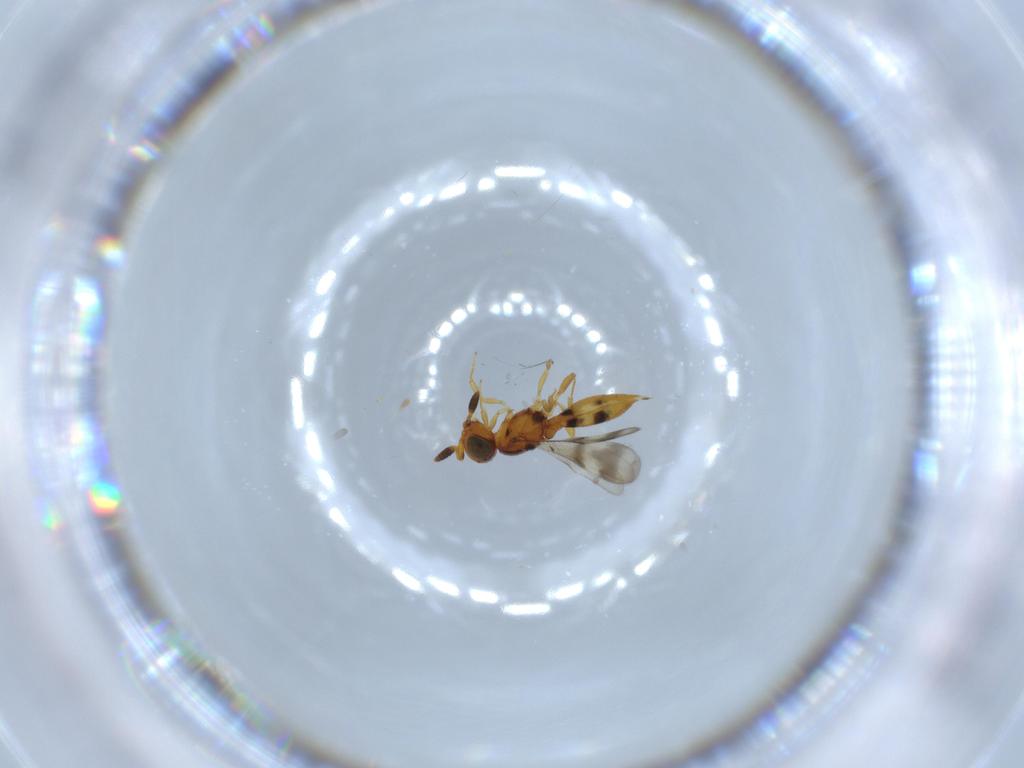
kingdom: Animalia
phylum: Arthropoda
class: Insecta
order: Hymenoptera
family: Scelionidae
